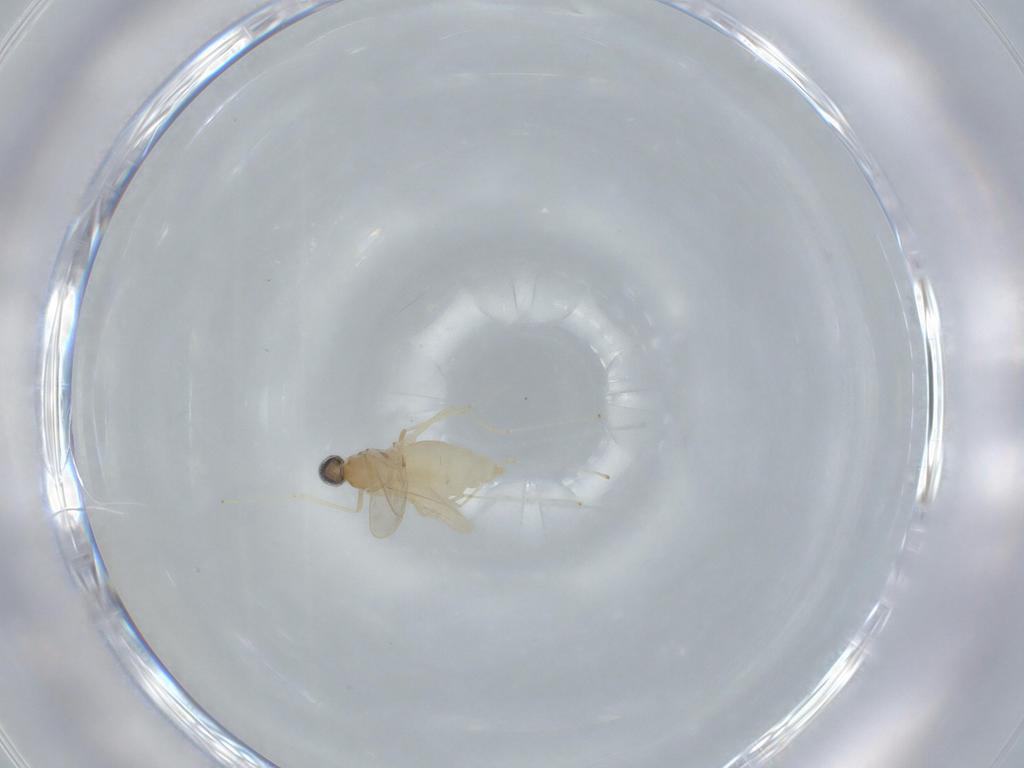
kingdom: Animalia
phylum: Arthropoda
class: Insecta
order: Diptera
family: Cecidomyiidae
